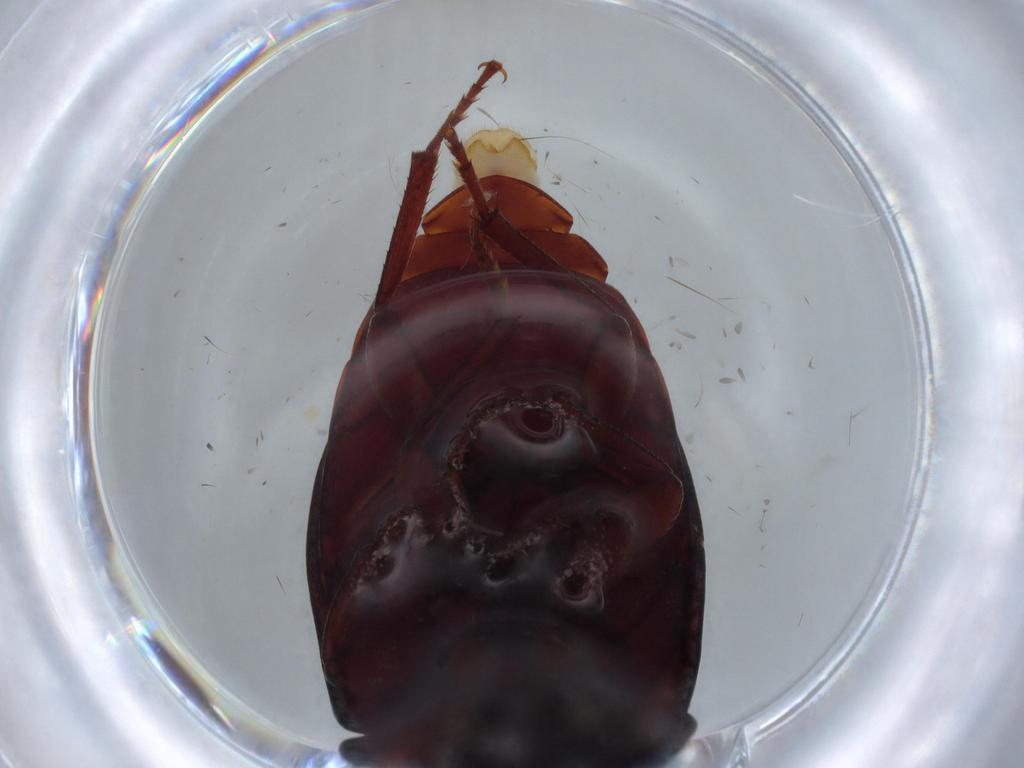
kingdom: Animalia
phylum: Arthropoda
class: Insecta
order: Coleoptera
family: Tenebrionidae
